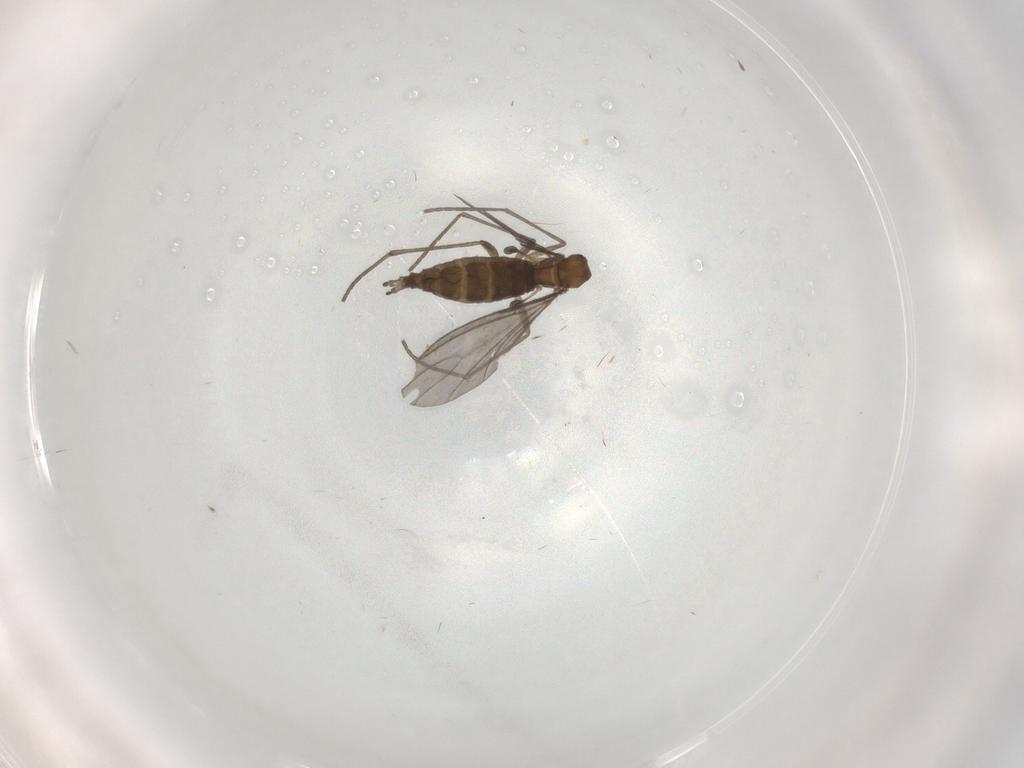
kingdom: Animalia
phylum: Arthropoda
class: Insecta
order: Diptera
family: Sciaridae
